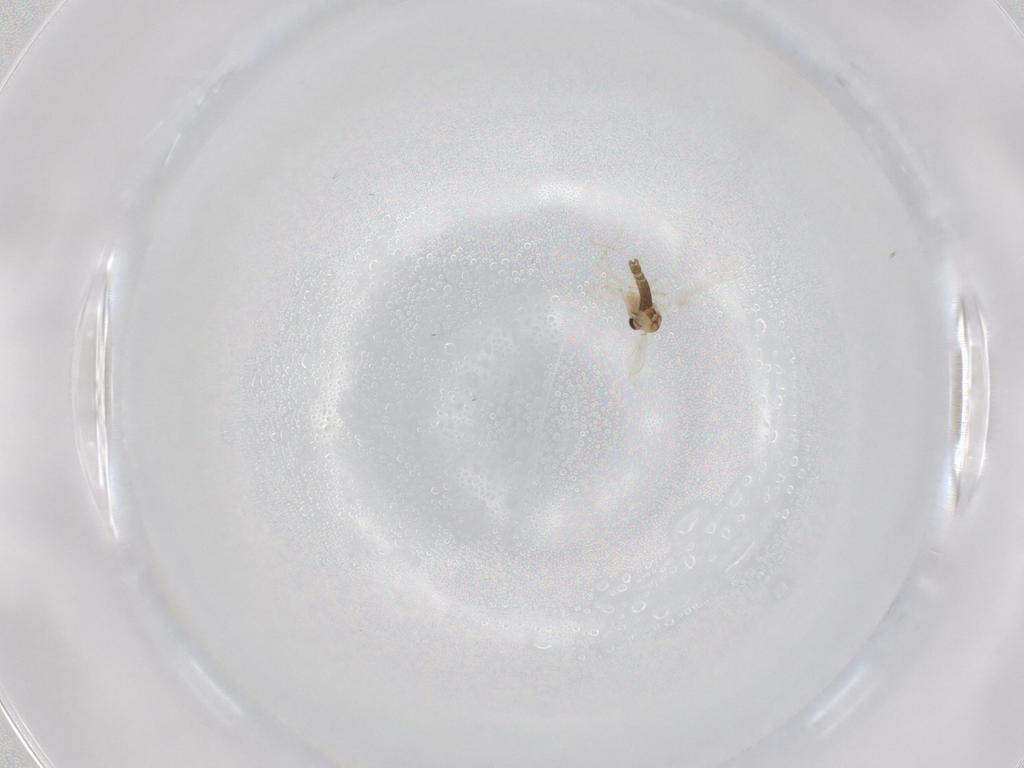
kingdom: Animalia
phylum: Arthropoda
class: Insecta
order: Diptera
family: Chironomidae
